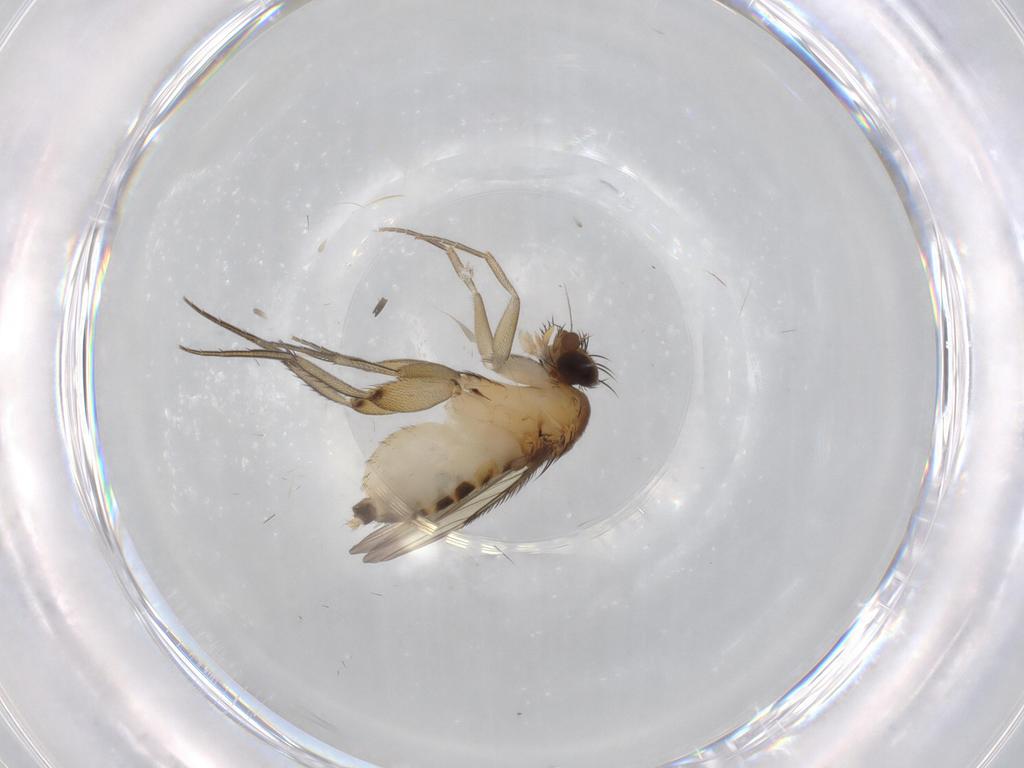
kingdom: Animalia
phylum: Arthropoda
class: Insecta
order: Diptera
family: Phoridae
